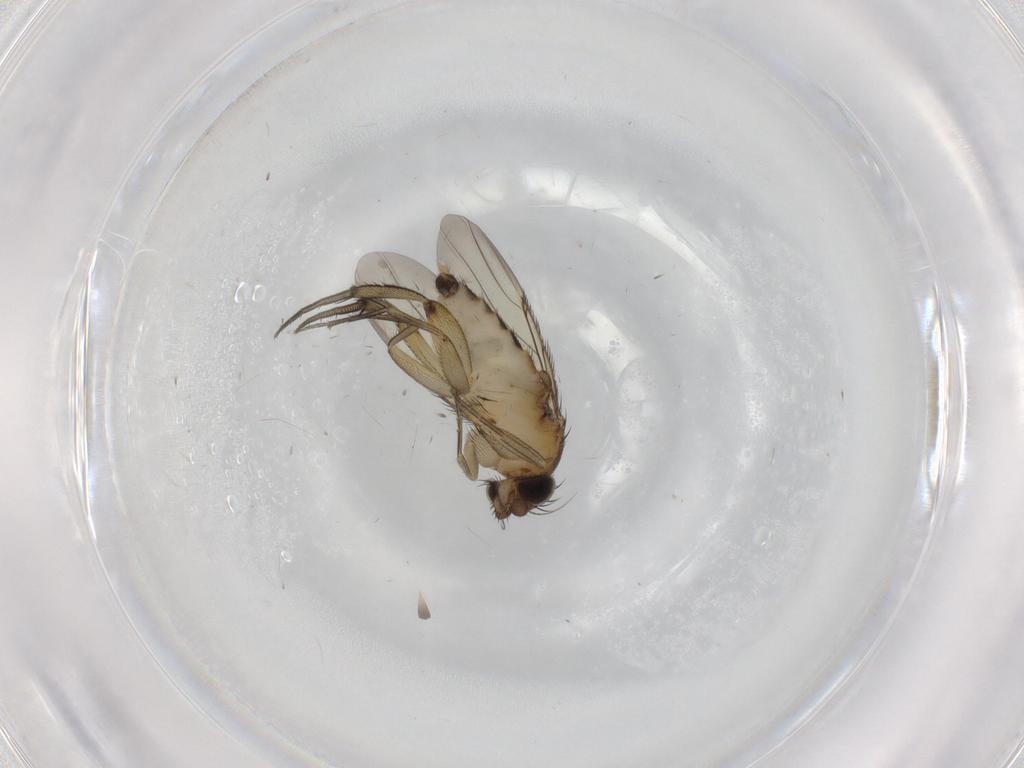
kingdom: Animalia
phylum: Arthropoda
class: Insecta
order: Diptera
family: Phoridae
